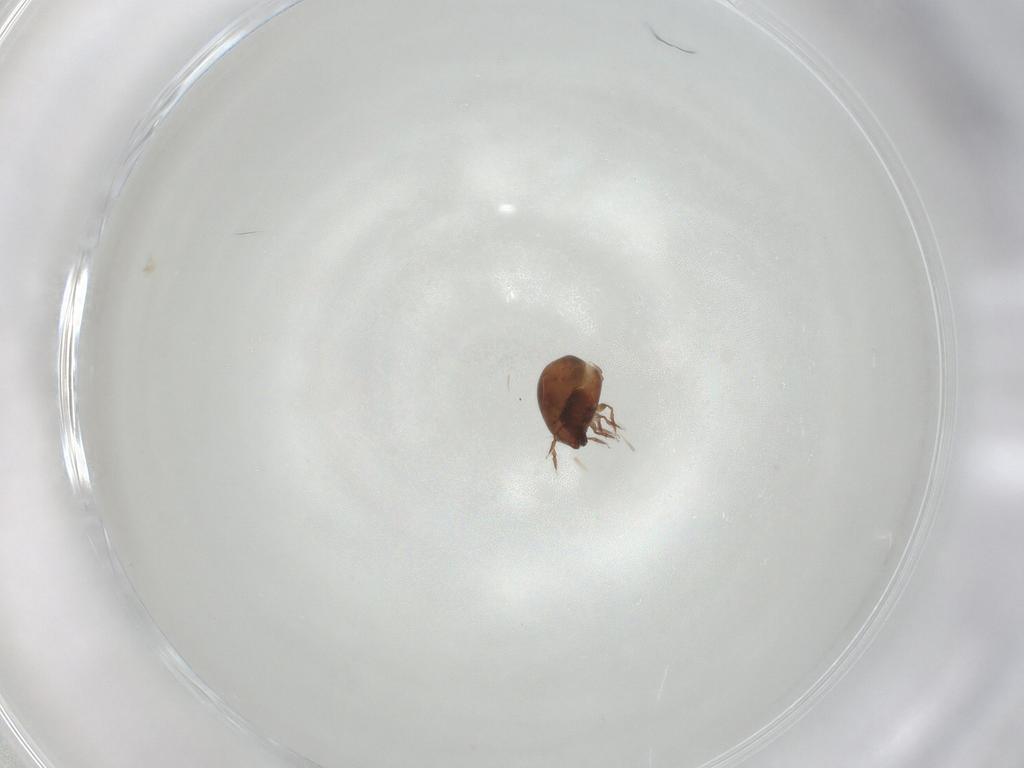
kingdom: Animalia
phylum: Arthropoda
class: Arachnida
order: Sarcoptiformes
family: Galumnidae
